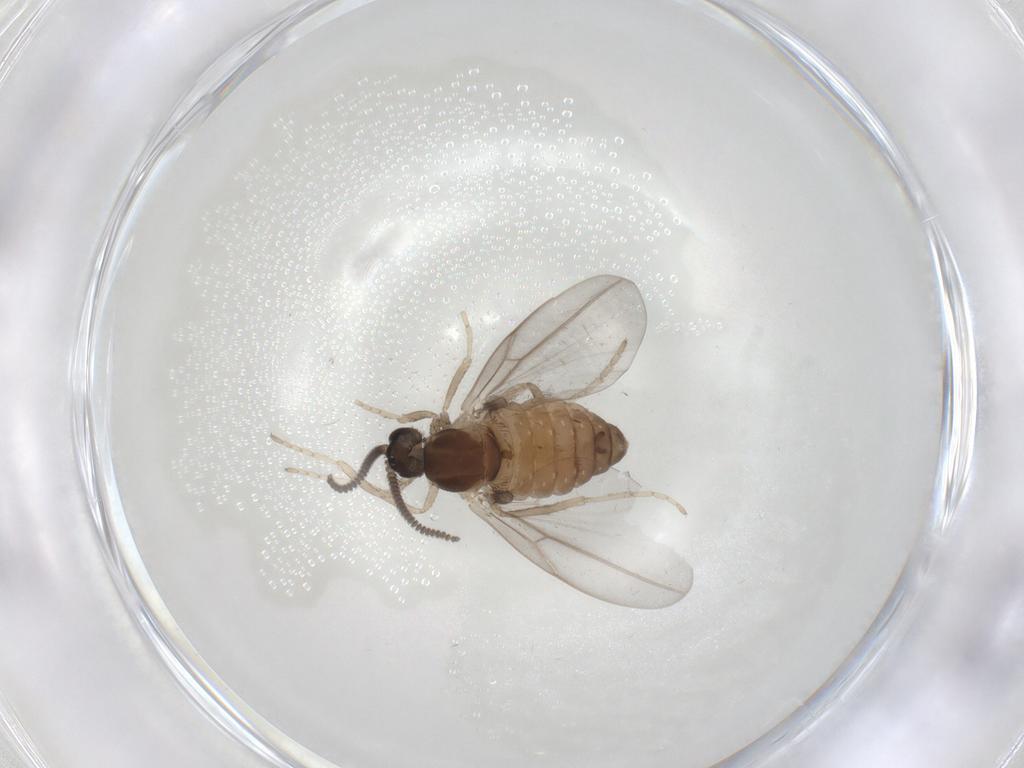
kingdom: Animalia
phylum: Arthropoda
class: Insecta
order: Diptera
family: Cecidomyiidae
